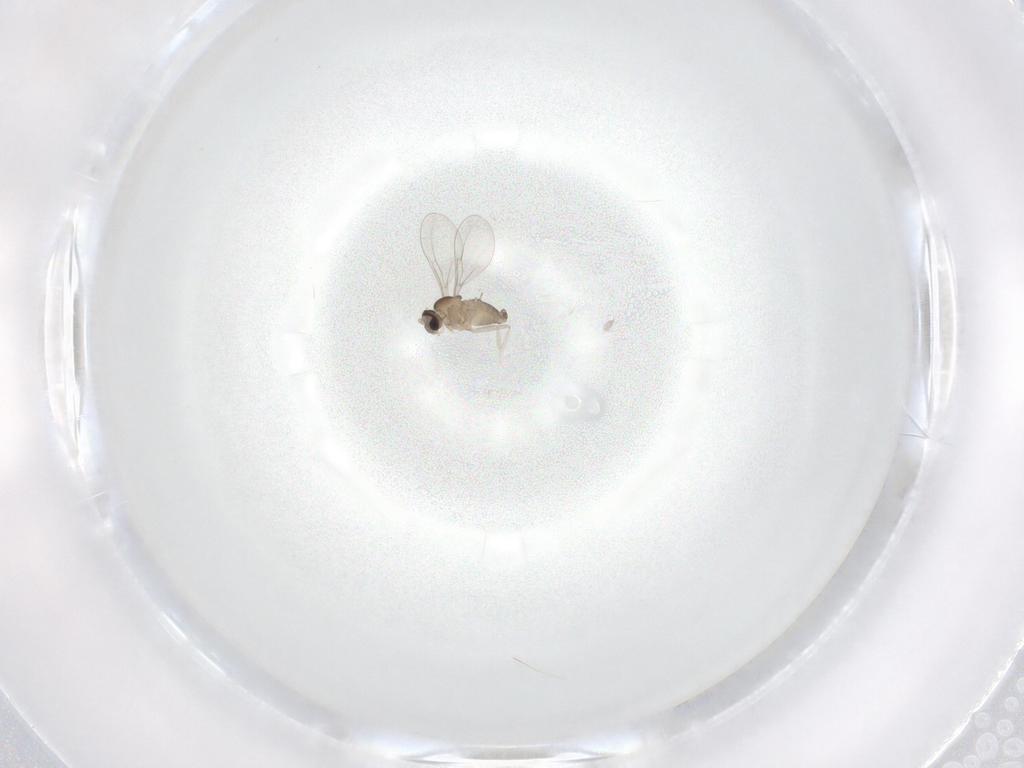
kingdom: Animalia
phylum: Arthropoda
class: Insecta
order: Diptera
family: Cecidomyiidae
